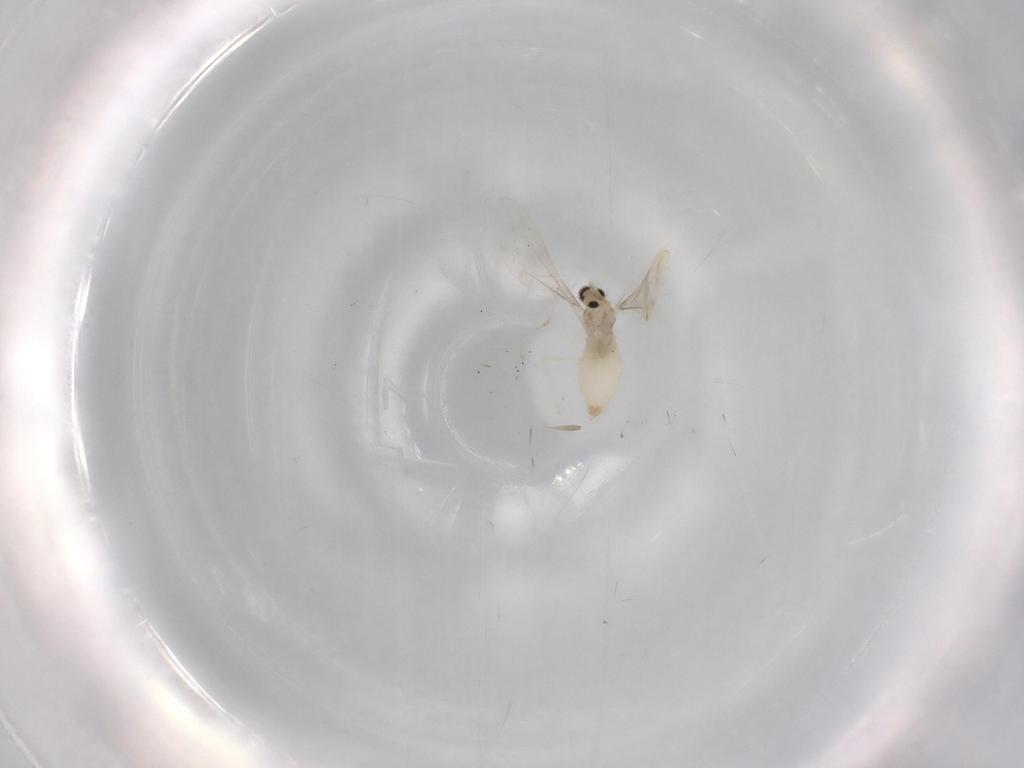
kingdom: Animalia
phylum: Arthropoda
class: Insecta
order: Diptera
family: Cecidomyiidae
